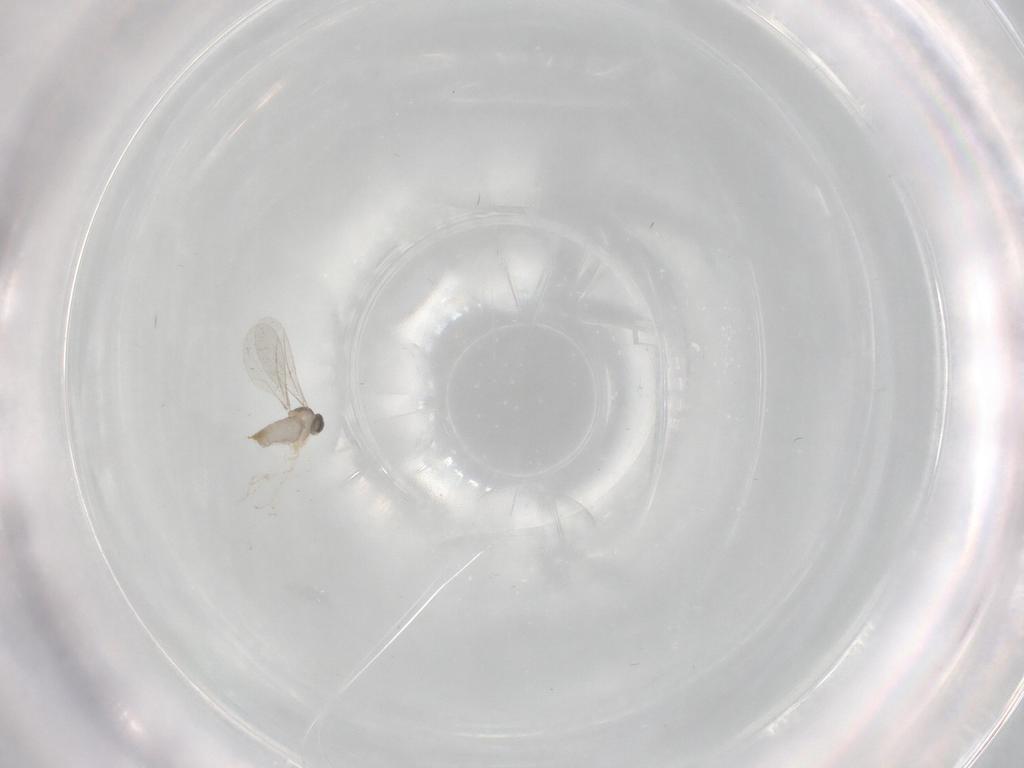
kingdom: Animalia
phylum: Arthropoda
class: Insecta
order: Diptera
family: Cecidomyiidae
